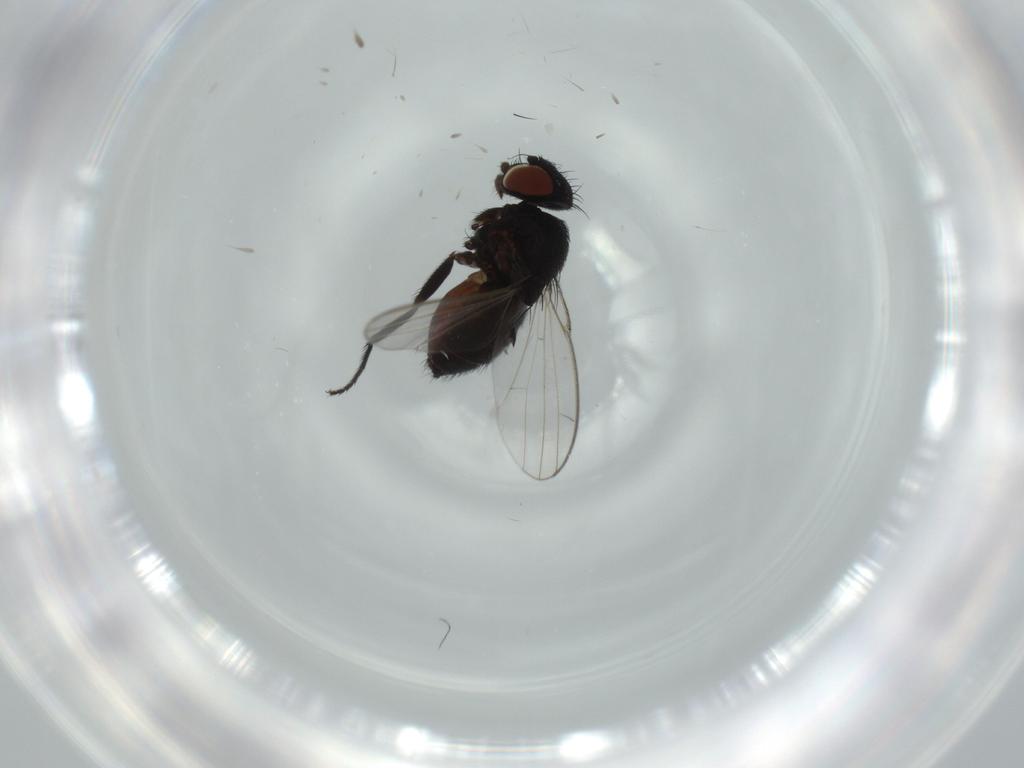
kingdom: Animalia
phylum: Arthropoda
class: Insecta
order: Diptera
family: Milichiidae
